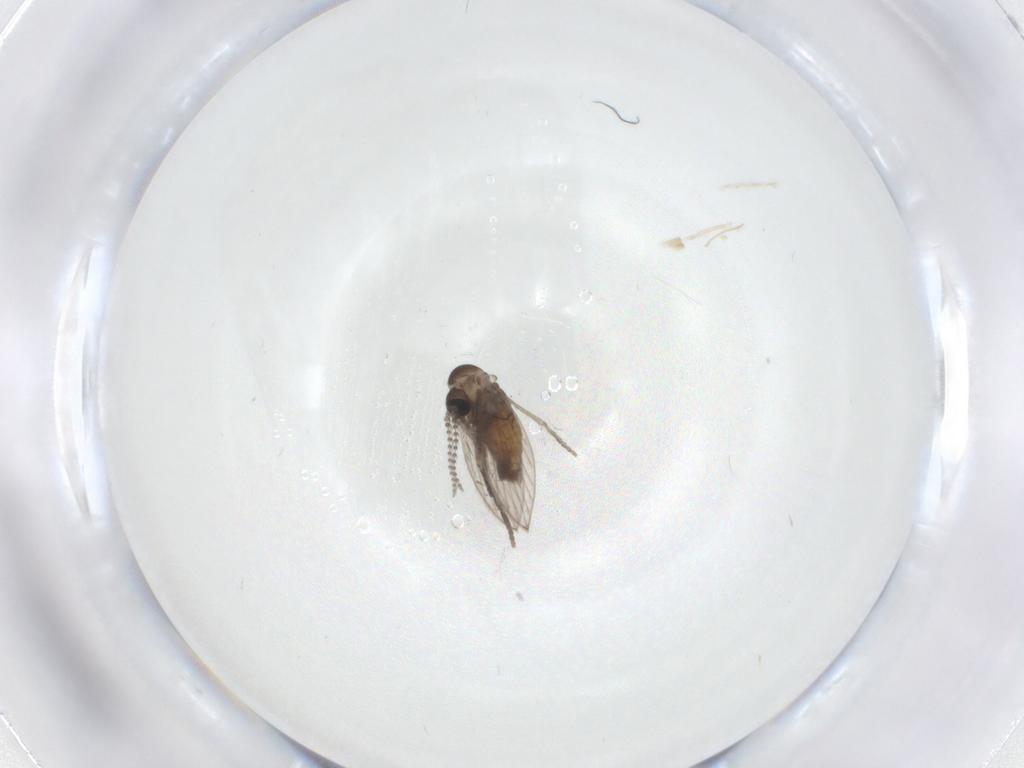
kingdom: Animalia
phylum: Arthropoda
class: Insecta
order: Diptera
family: Psychodidae
